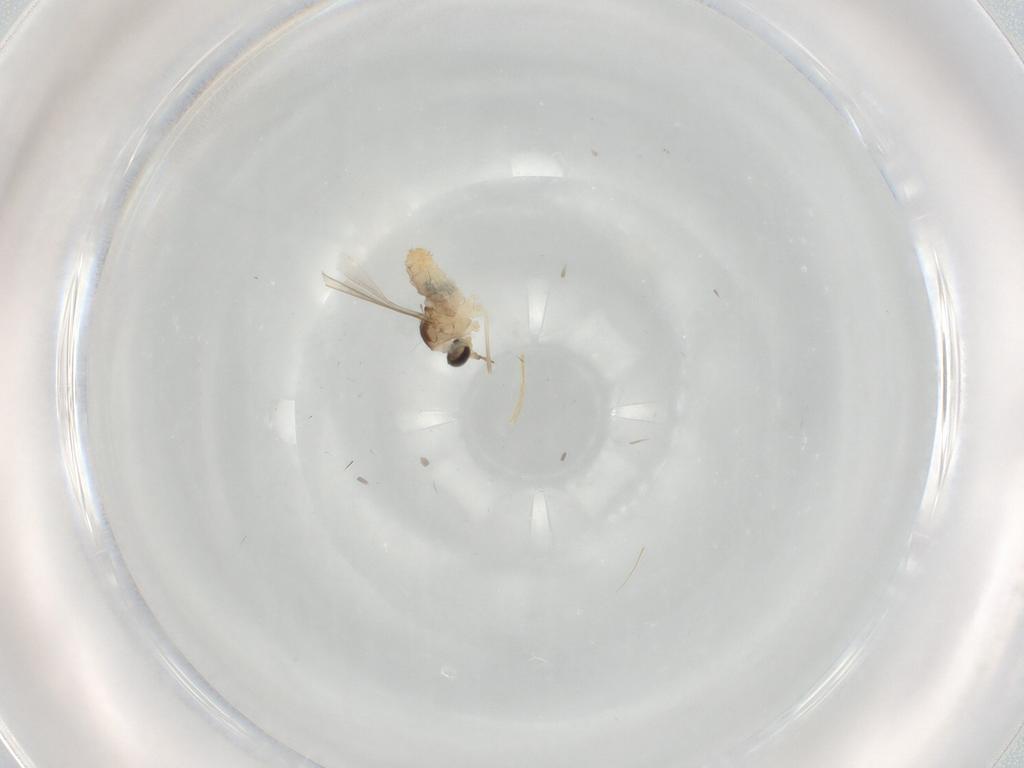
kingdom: Animalia
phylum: Arthropoda
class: Insecta
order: Diptera
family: Cecidomyiidae
